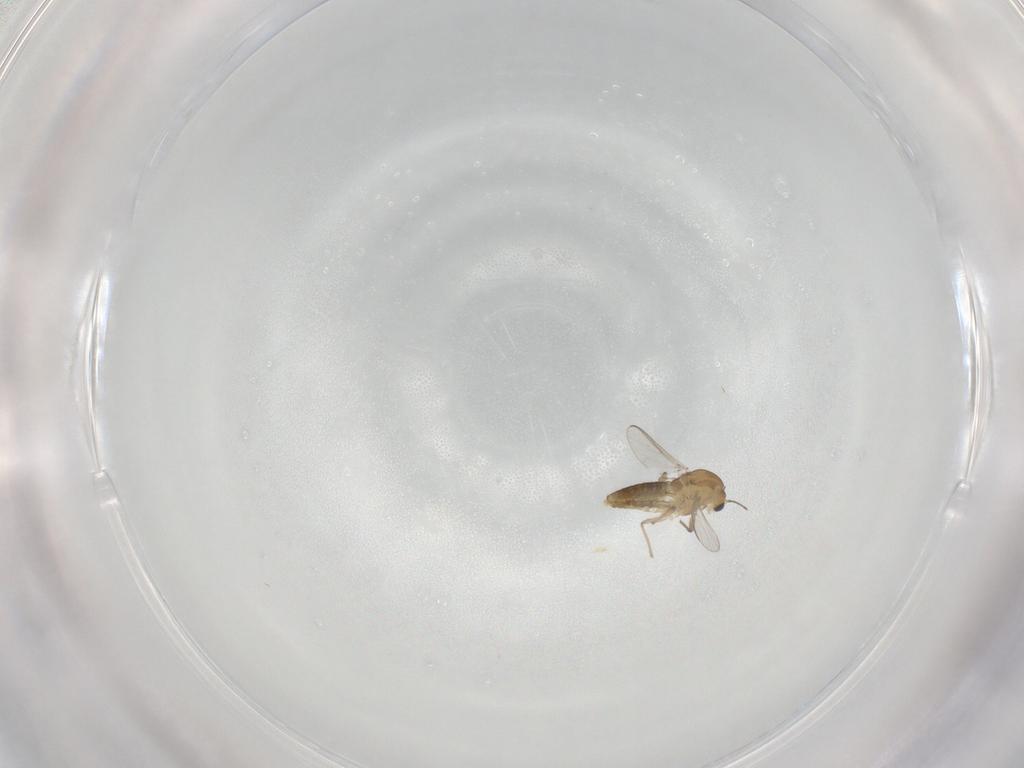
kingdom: Animalia
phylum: Arthropoda
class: Insecta
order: Diptera
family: Chironomidae
